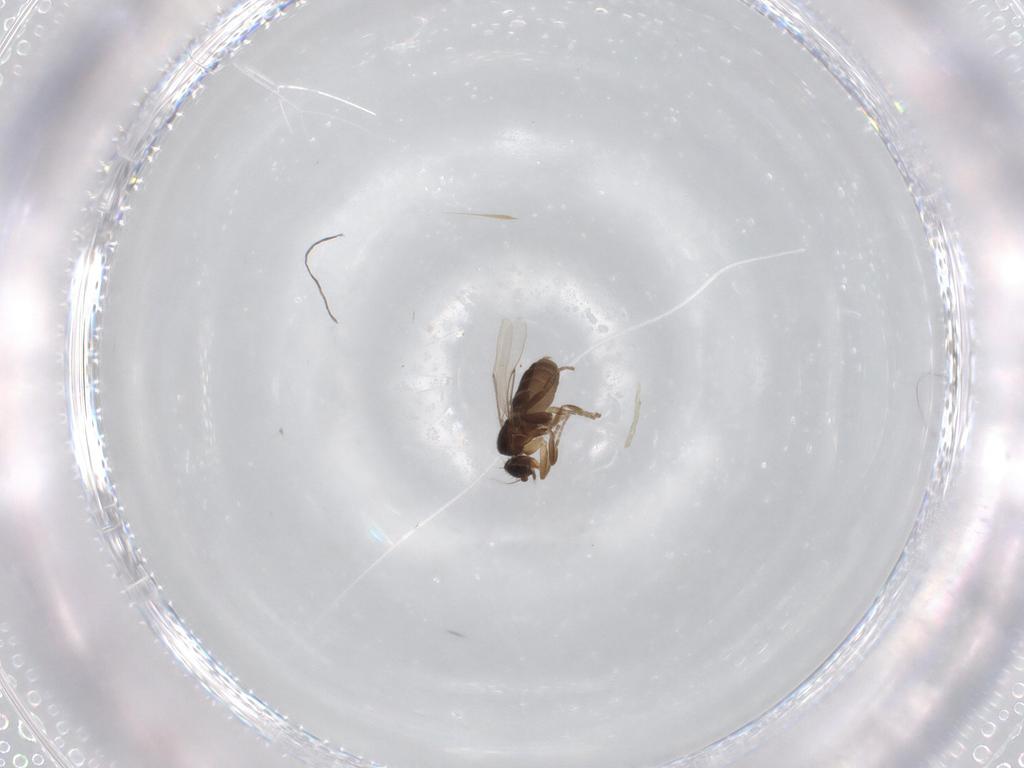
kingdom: Animalia
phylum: Arthropoda
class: Insecta
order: Diptera
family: Phoridae
